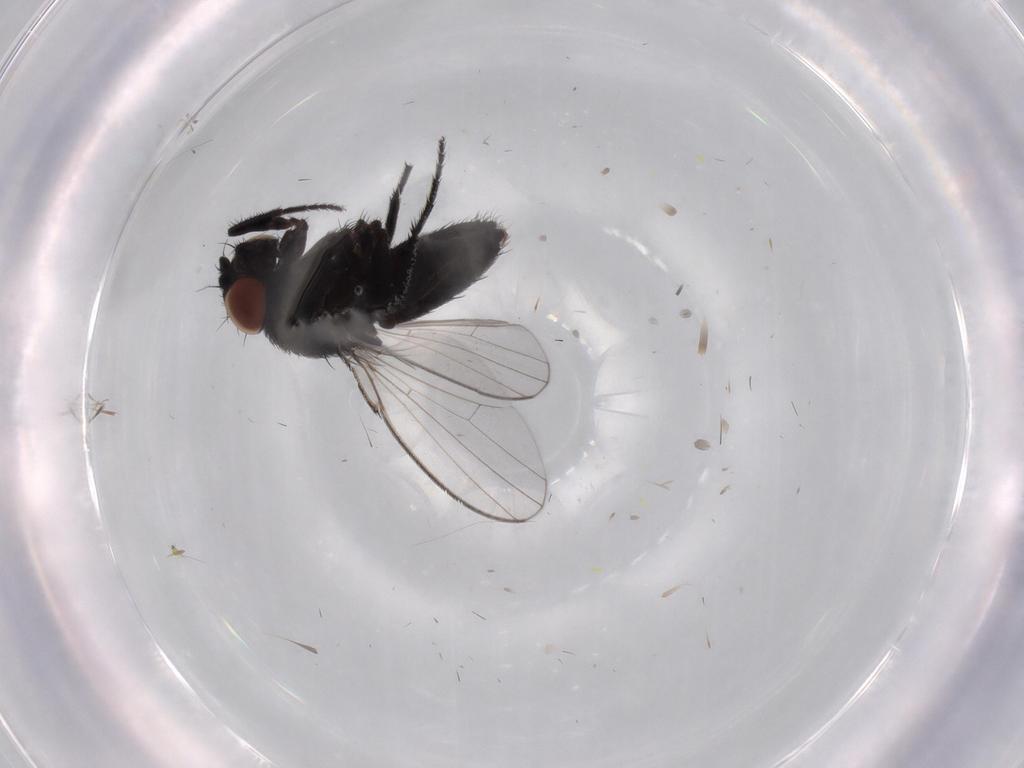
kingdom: Animalia
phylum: Arthropoda
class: Insecta
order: Diptera
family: Milichiidae
